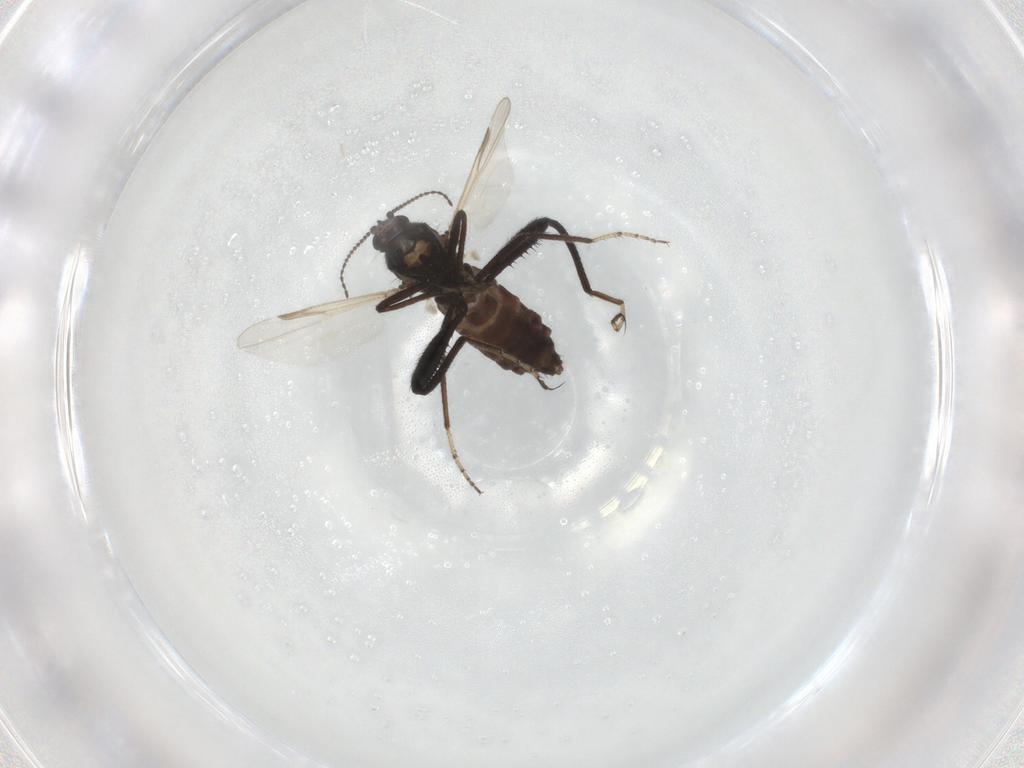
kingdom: Animalia
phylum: Arthropoda
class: Insecta
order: Diptera
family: Ceratopogonidae
